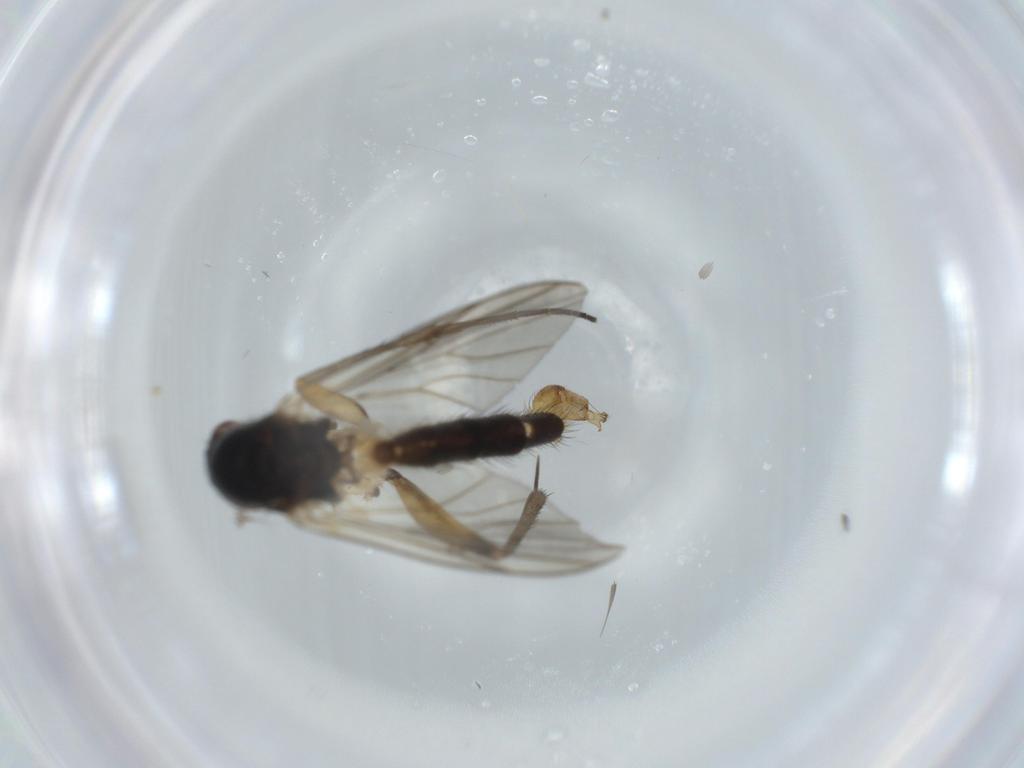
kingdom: Animalia
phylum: Arthropoda
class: Insecta
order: Diptera
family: Mycetophilidae
